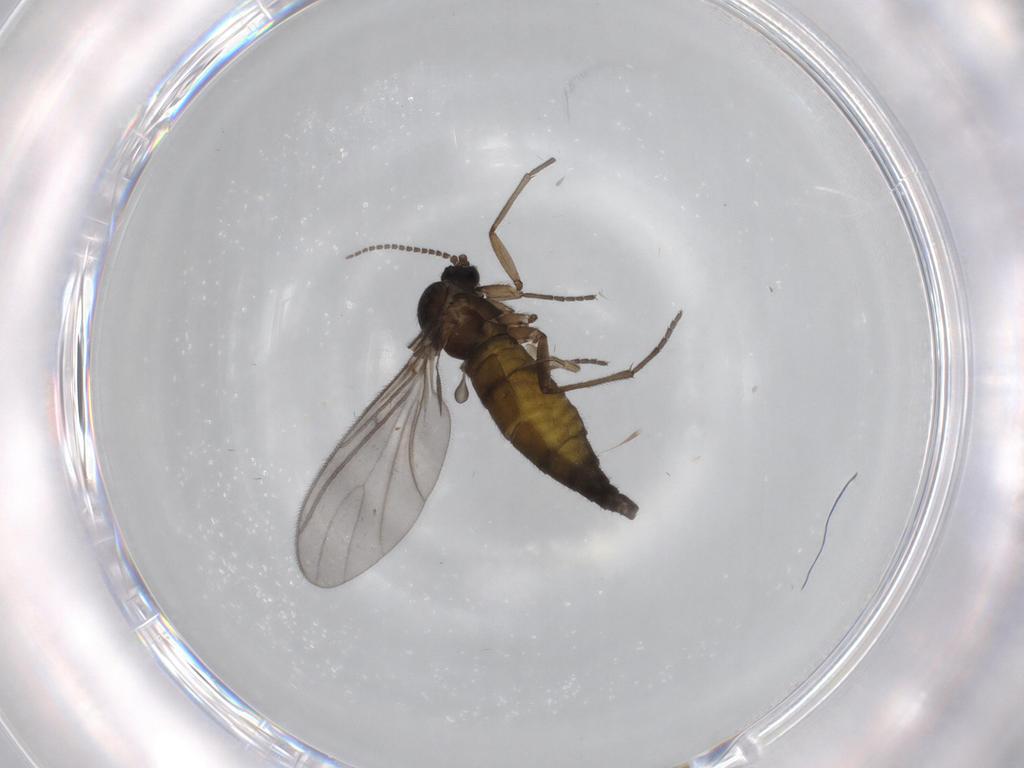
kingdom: Animalia
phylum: Arthropoda
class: Insecta
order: Diptera
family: Sciaridae
